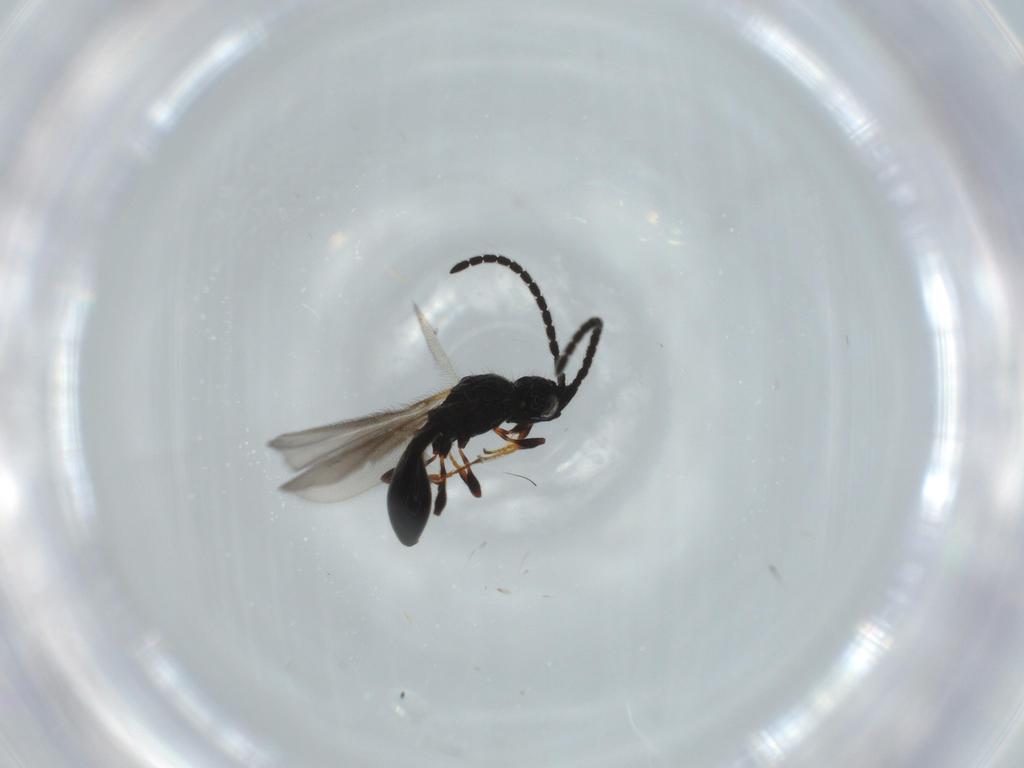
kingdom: Animalia
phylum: Arthropoda
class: Insecta
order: Hymenoptera
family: Diapriidae
